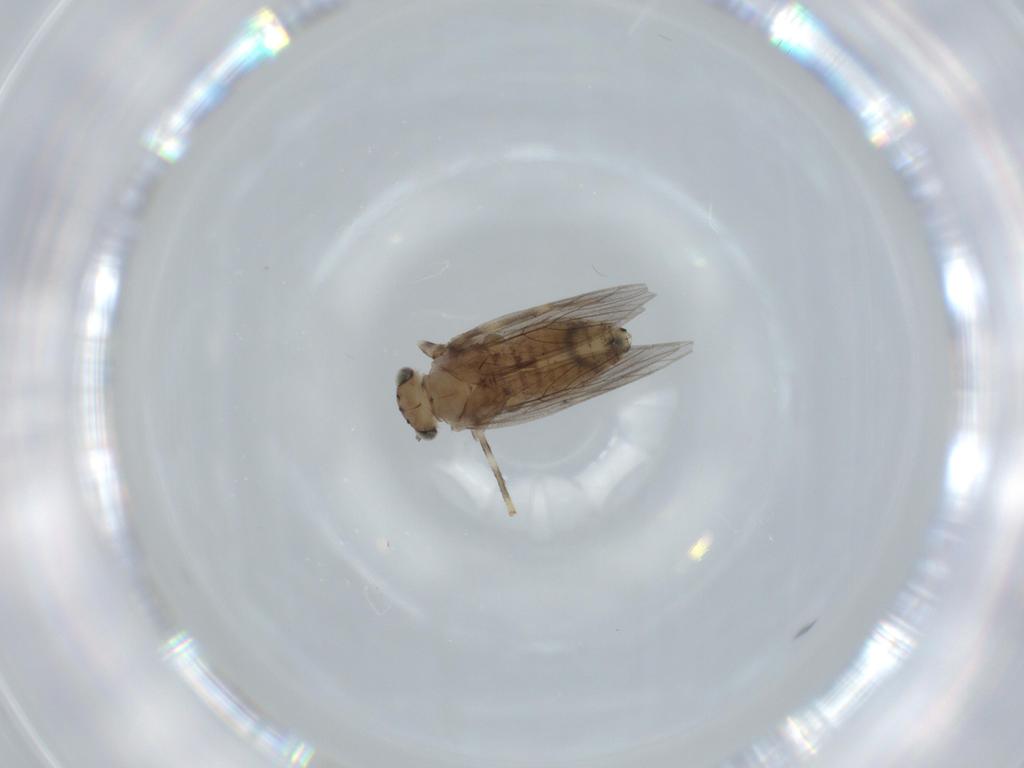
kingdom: Animalia
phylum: Arthropoda
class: Insecta
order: Psocodea
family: Lepidopsocidae
